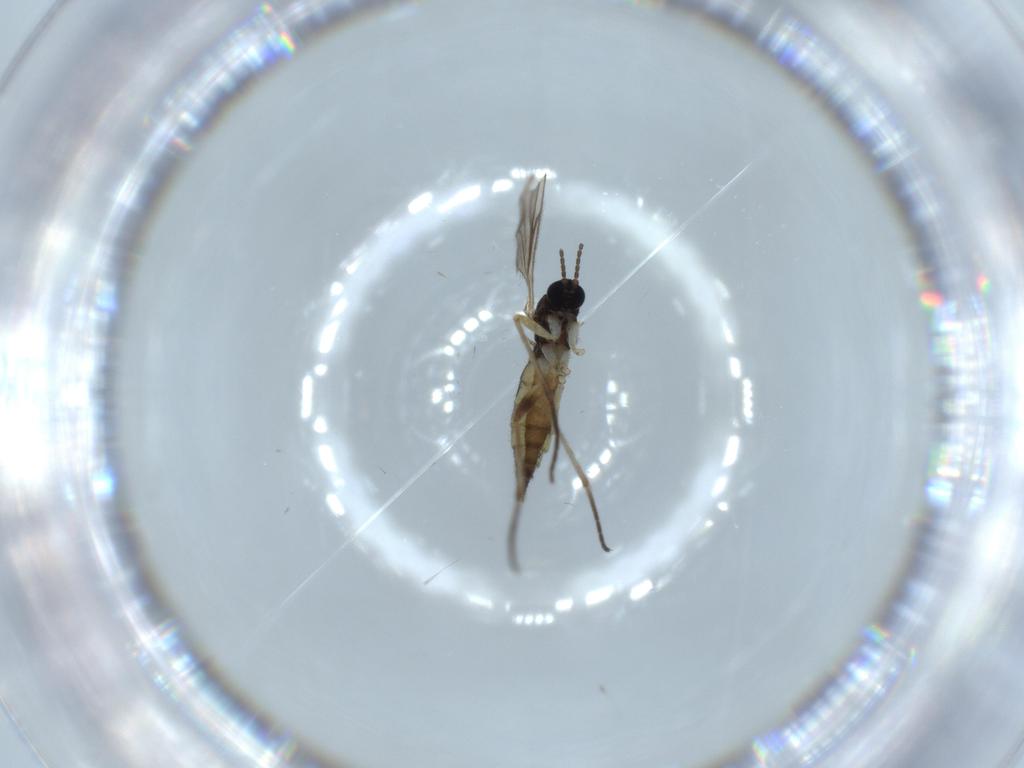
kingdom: Animalia
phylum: Arthropoda
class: Insecta
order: Diptera
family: Sciaridae
